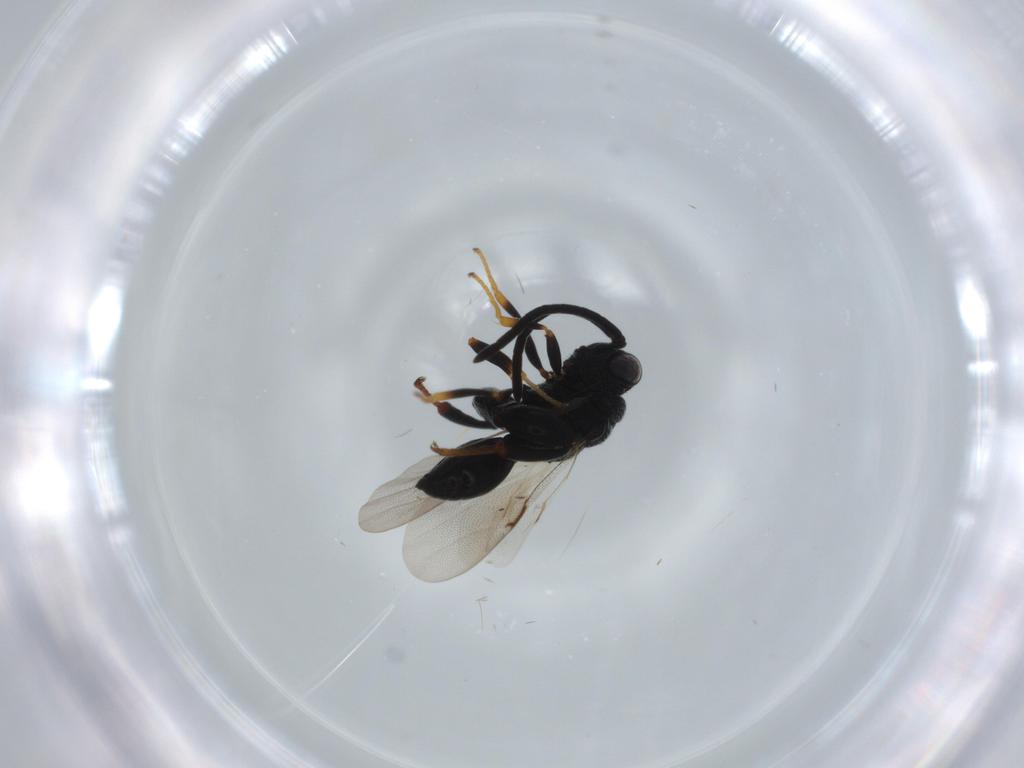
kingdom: Animalia
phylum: Arthropoda
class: Insecta
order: Hymenoptera
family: Formicidae
